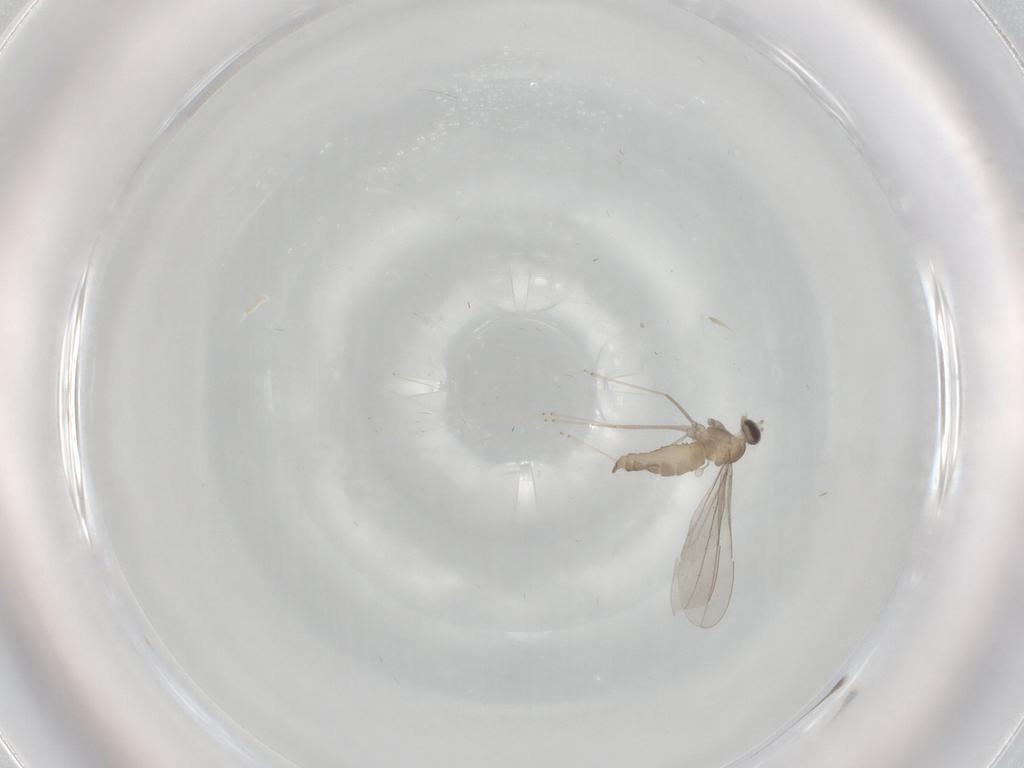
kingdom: Animalia
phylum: Arthropoda
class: Insecta
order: Diptera
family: Cecidomyiidae
